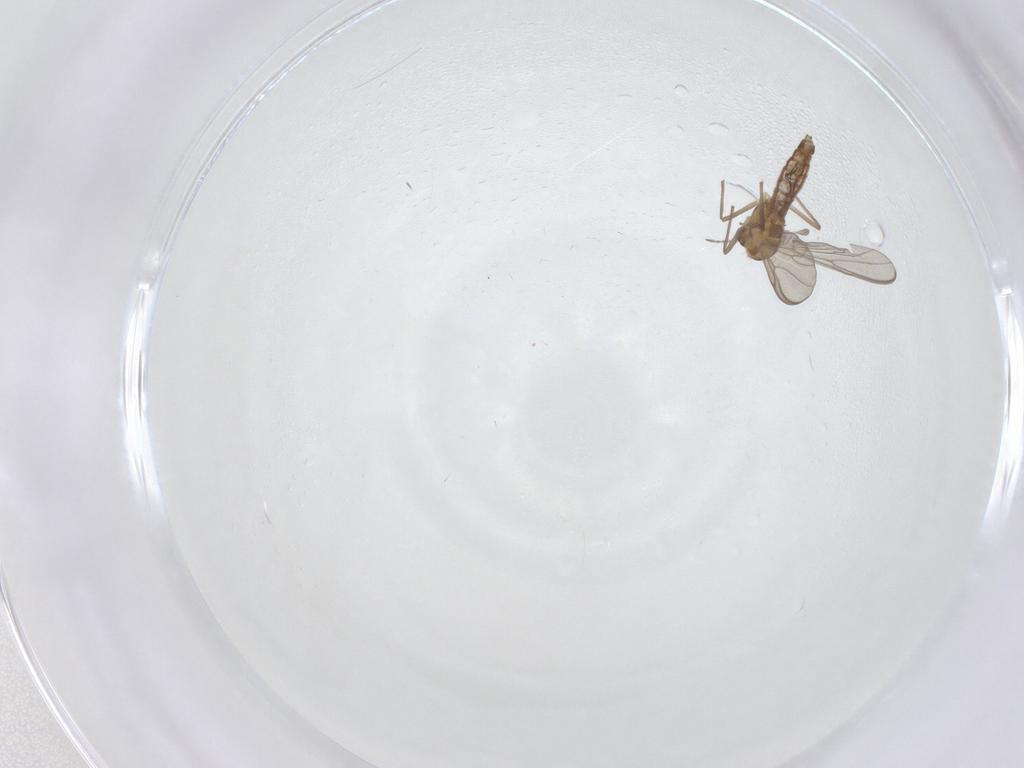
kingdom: Animalia
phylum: Arthropoda
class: Insecta
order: Diptera
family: Chironomidae
